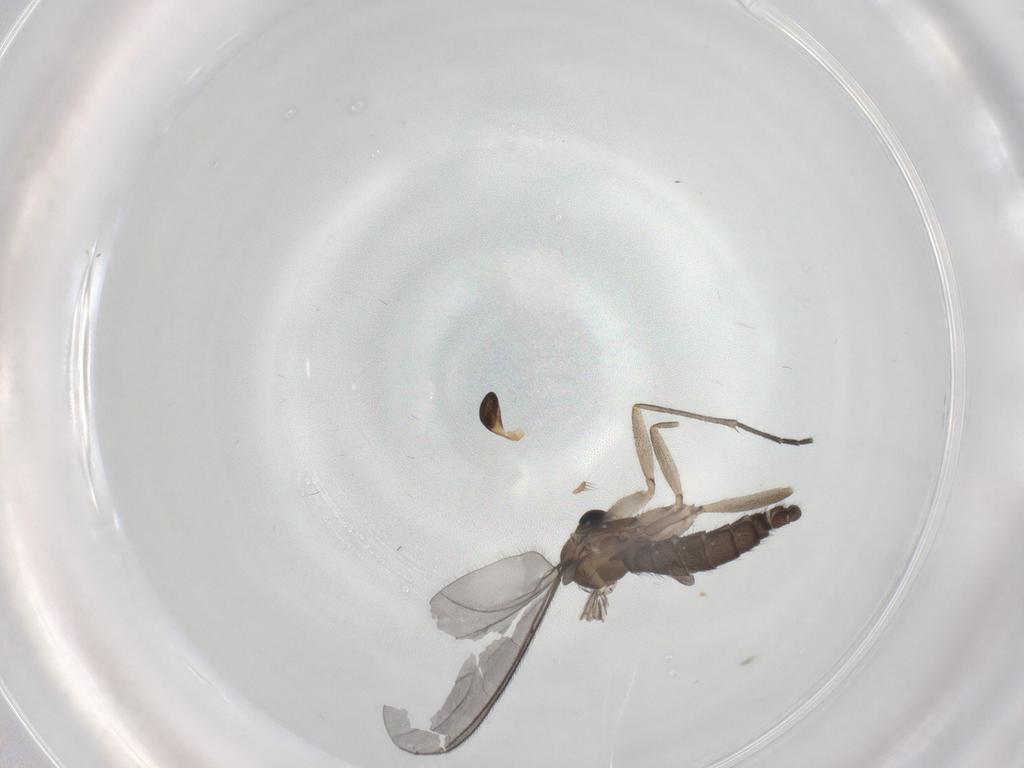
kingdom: Animalia
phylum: Arthropoda
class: Insecta
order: Diptera
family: Sciaridae
